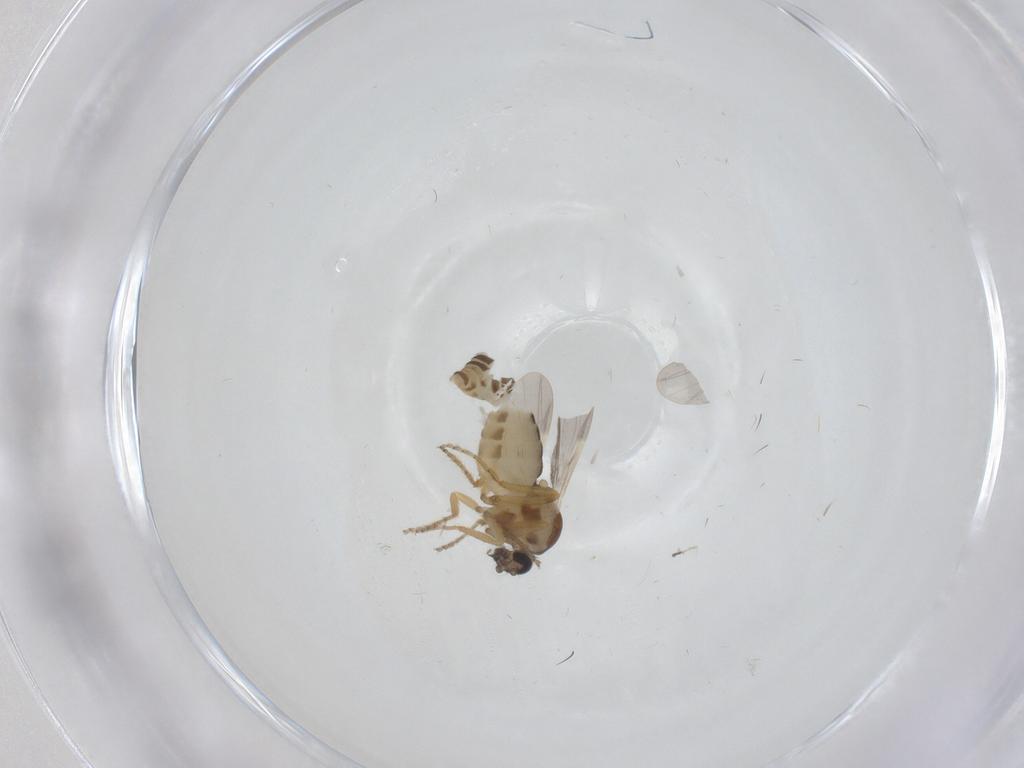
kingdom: Animalia
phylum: Arthropoda
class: Insecta
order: Diptera
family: Ceratopogonidae
